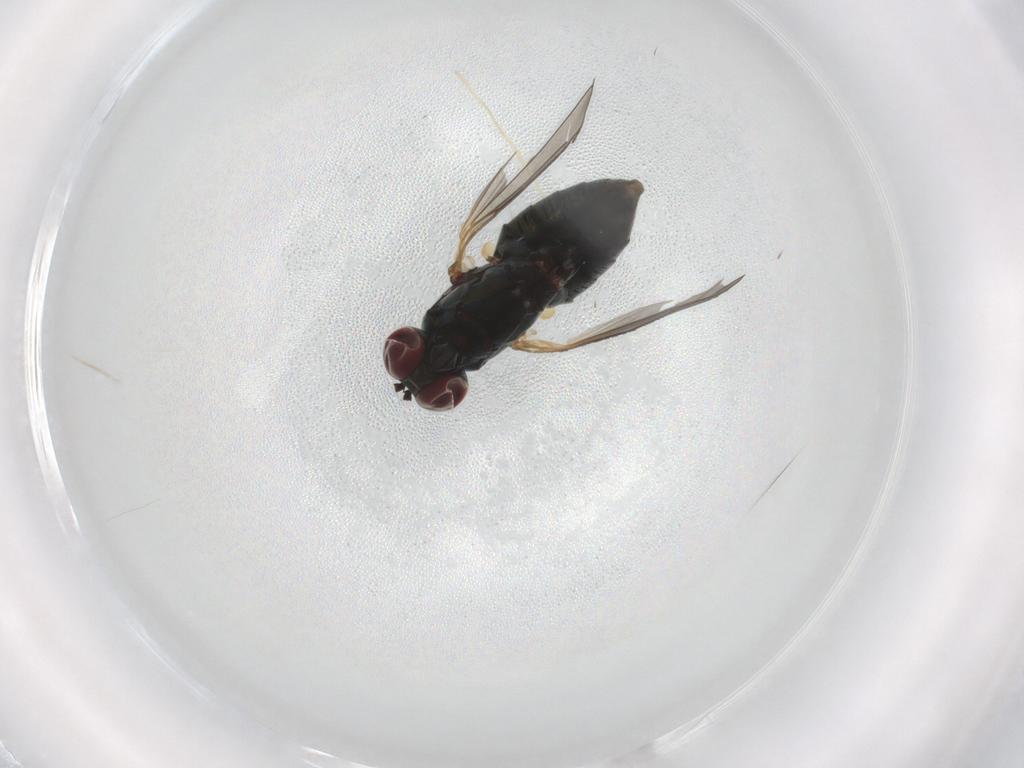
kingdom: Animalia
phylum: Arthropoda
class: Insecta
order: Diptera
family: Dolichopodidae
